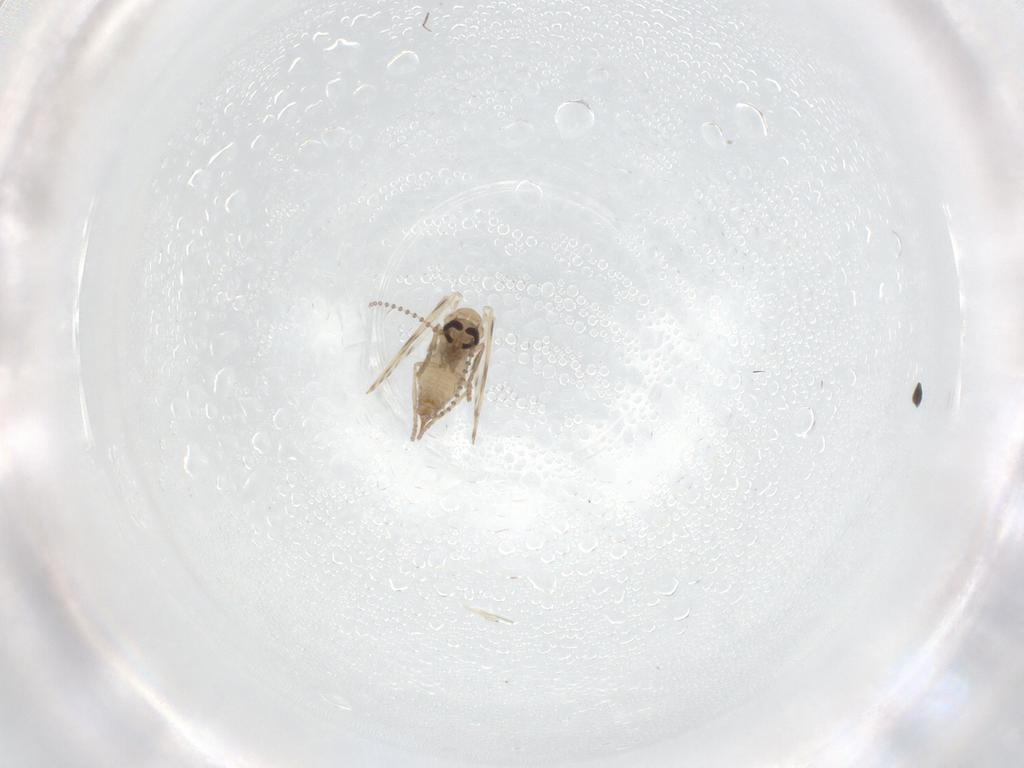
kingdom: Animalia
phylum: Arthropoda
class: Insecta
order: Diptera
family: Psychodidae
